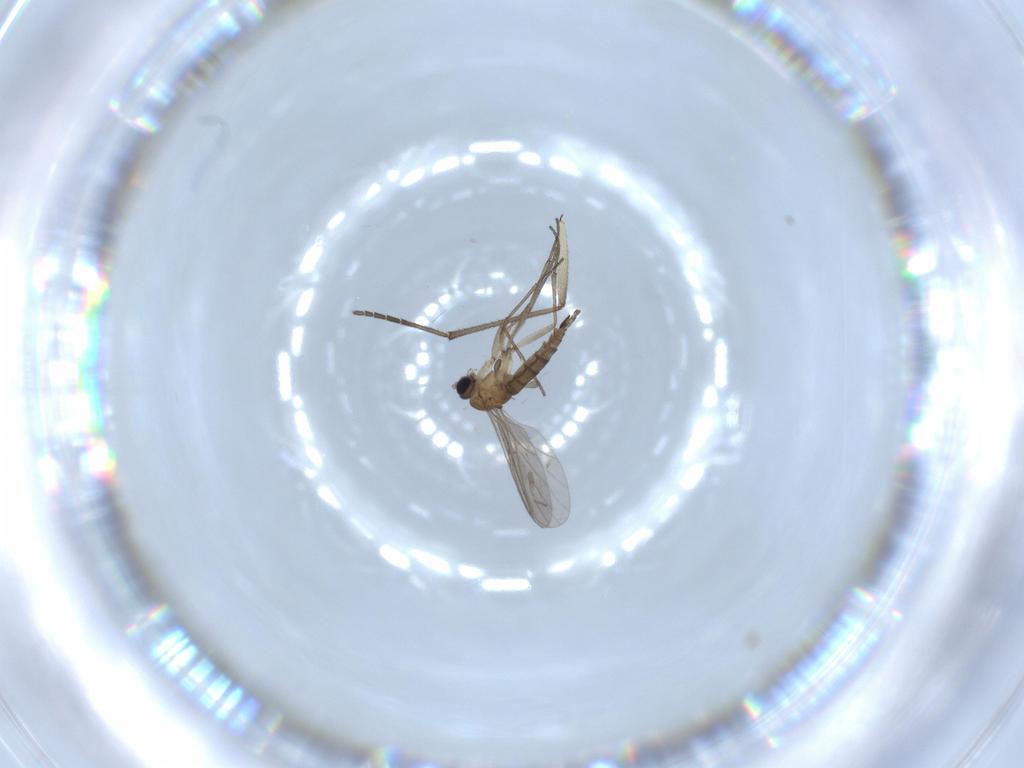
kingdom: Animalia
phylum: Arthropoda
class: Insecta
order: Diptera
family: Sciaridae
